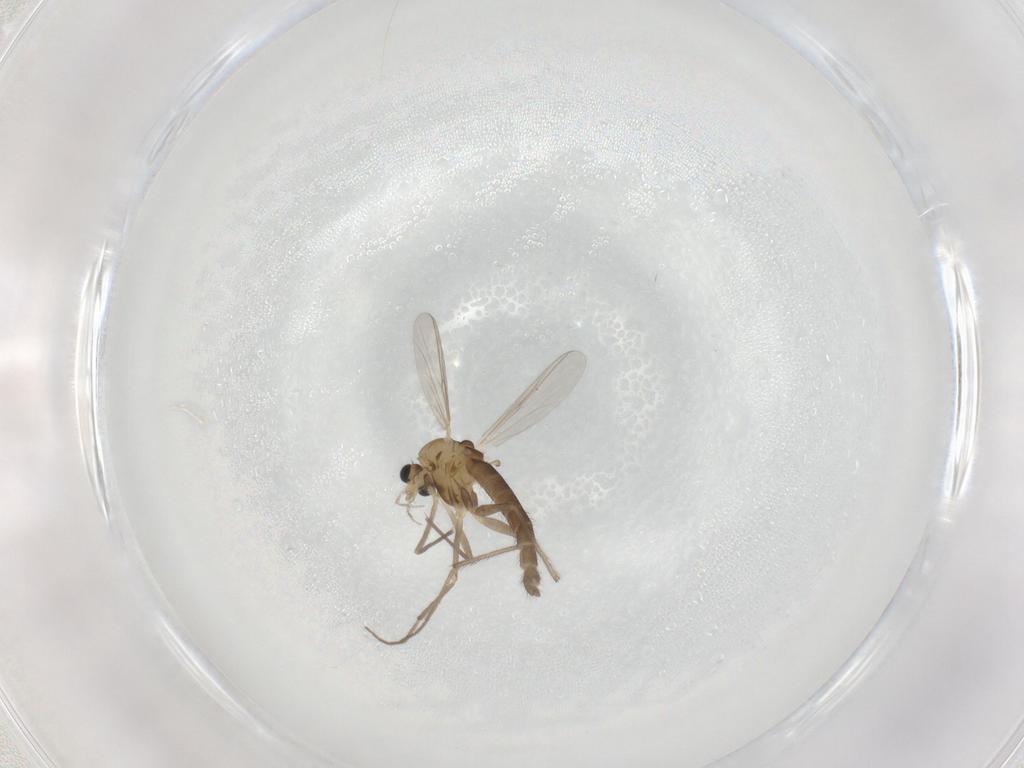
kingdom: Animalia
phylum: Arthropoda
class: Insecta
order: Diptera
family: Chironomidae
